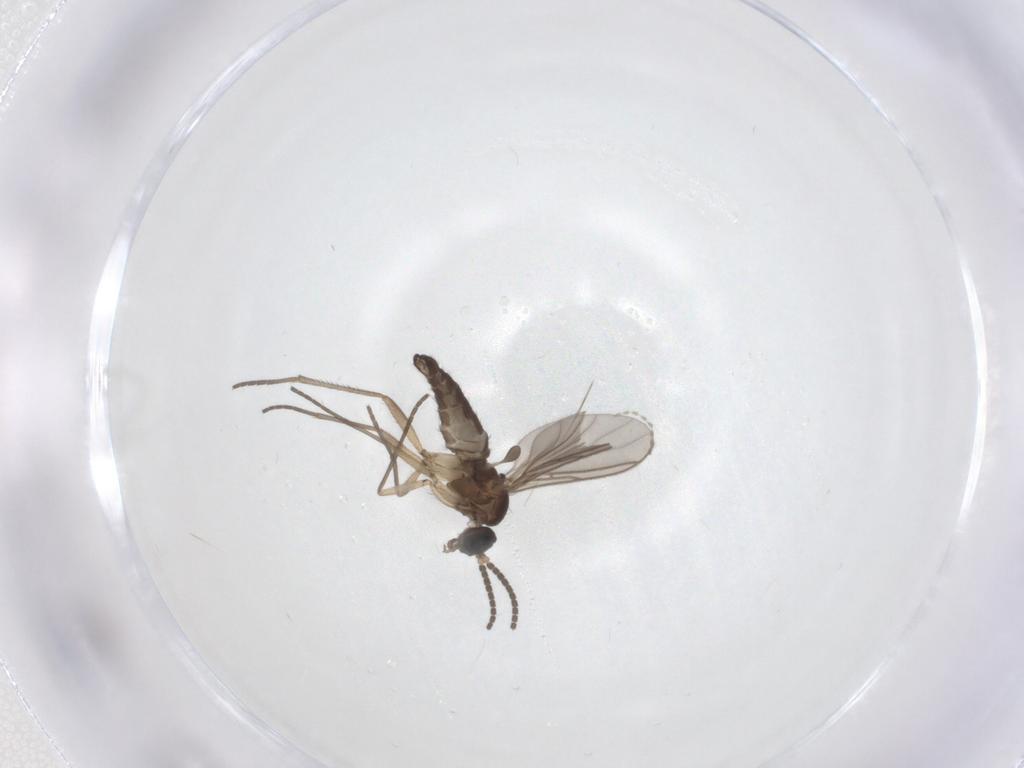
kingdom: Animalia
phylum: Arthropoda
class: Insecta
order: Diptera
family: Sciaridae
